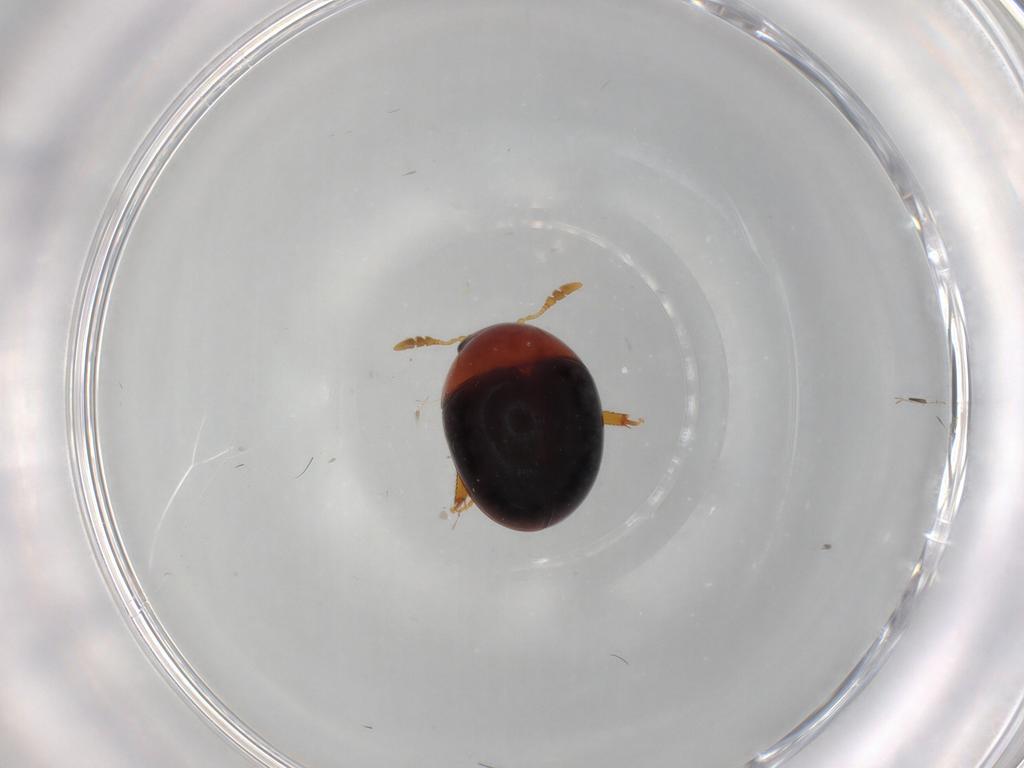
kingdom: Animalia
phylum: Arthropoda
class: Insecta
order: Coleoptera
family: Phalacridae
